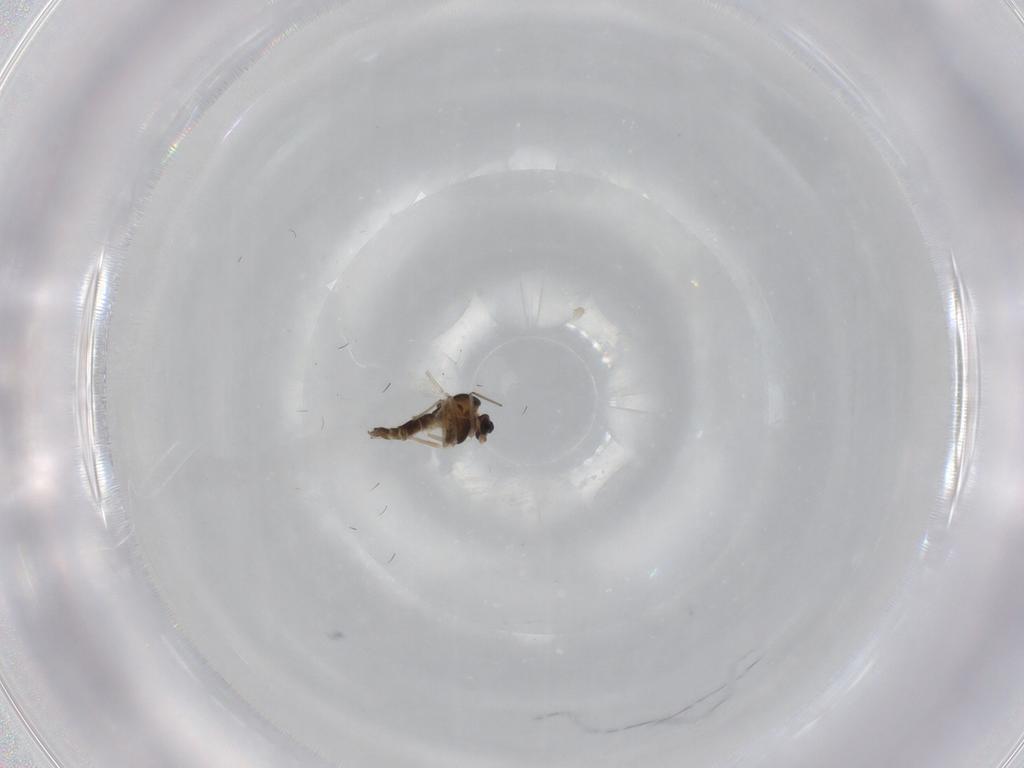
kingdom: Animalia
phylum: Arthropoda
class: Insecta
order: Diptera
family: Chironomidae
